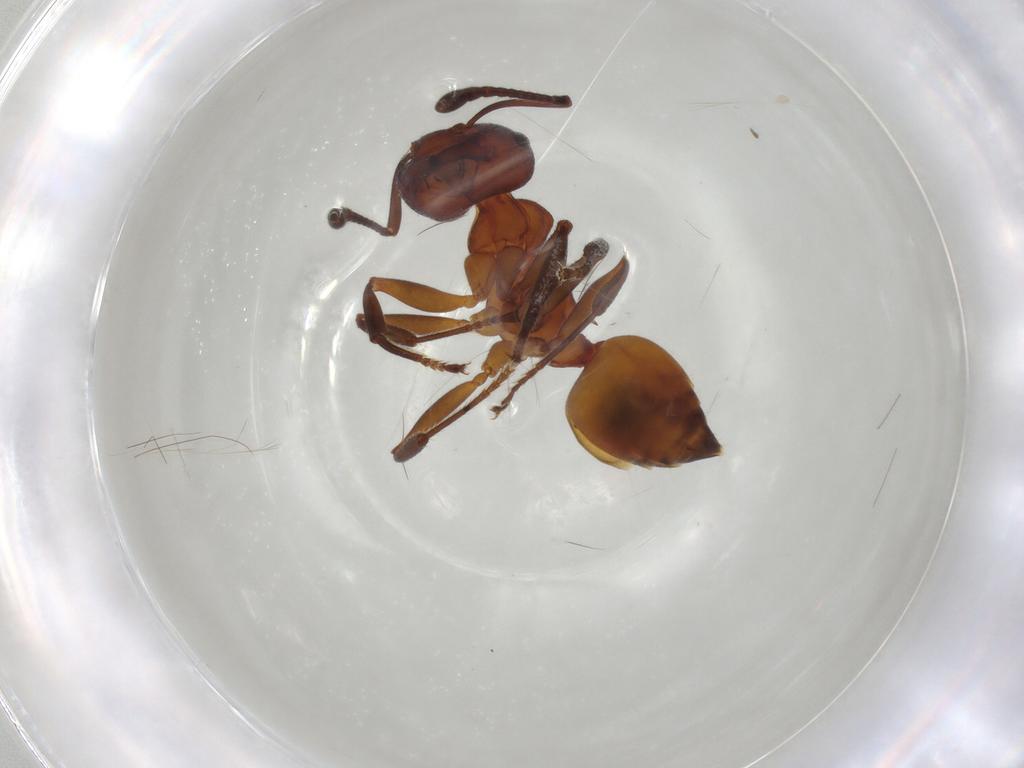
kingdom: Animalia
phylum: Arthropoda
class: Insecta
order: Hymenoptera
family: Formicidae
